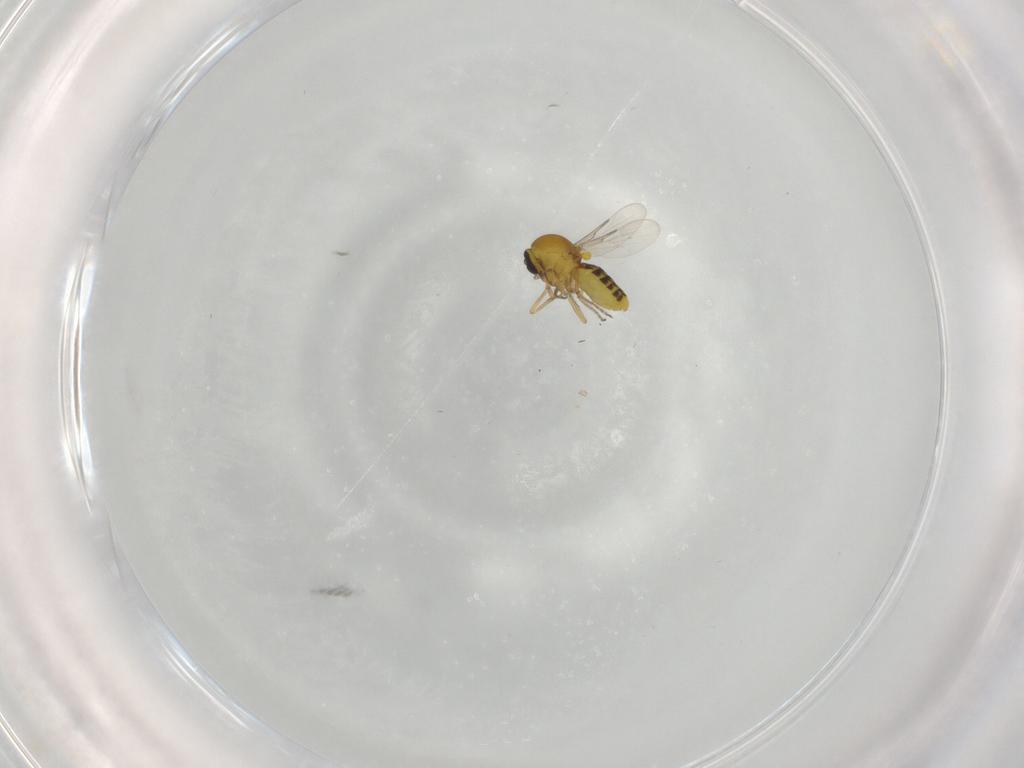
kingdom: Animalia
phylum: Arthropoda
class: Insecta
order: Diptera
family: Ceratopogonidae
